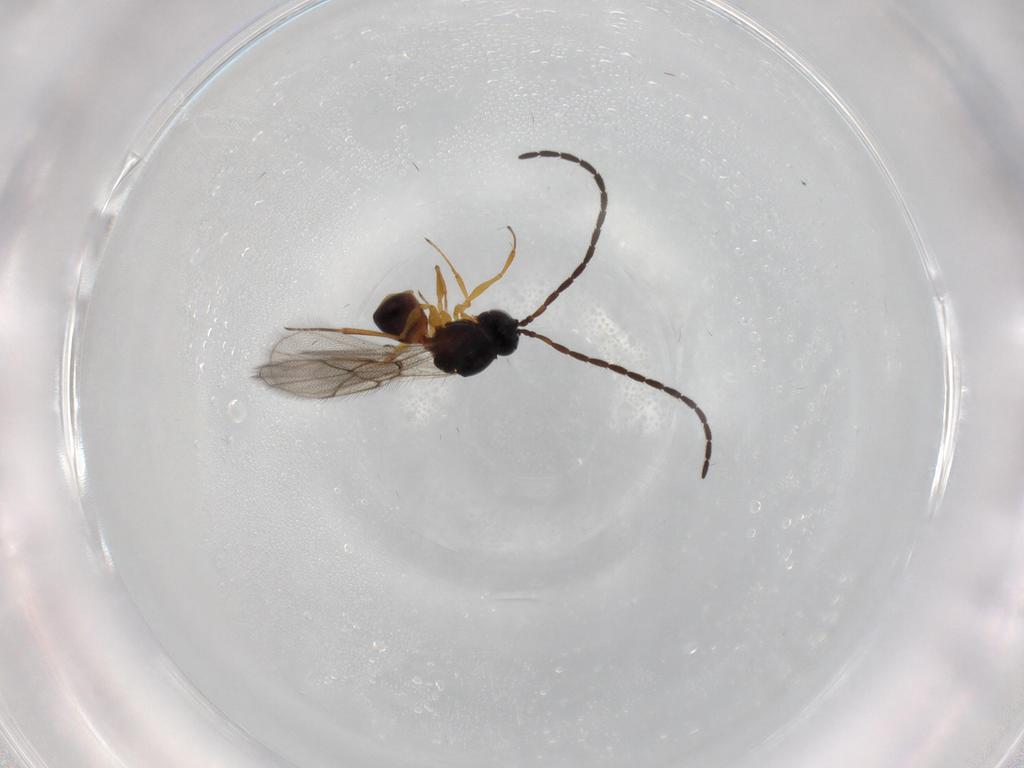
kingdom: Animalia
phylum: Arthropoda
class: Insecta
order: Hymenoptera
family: Figitidae
